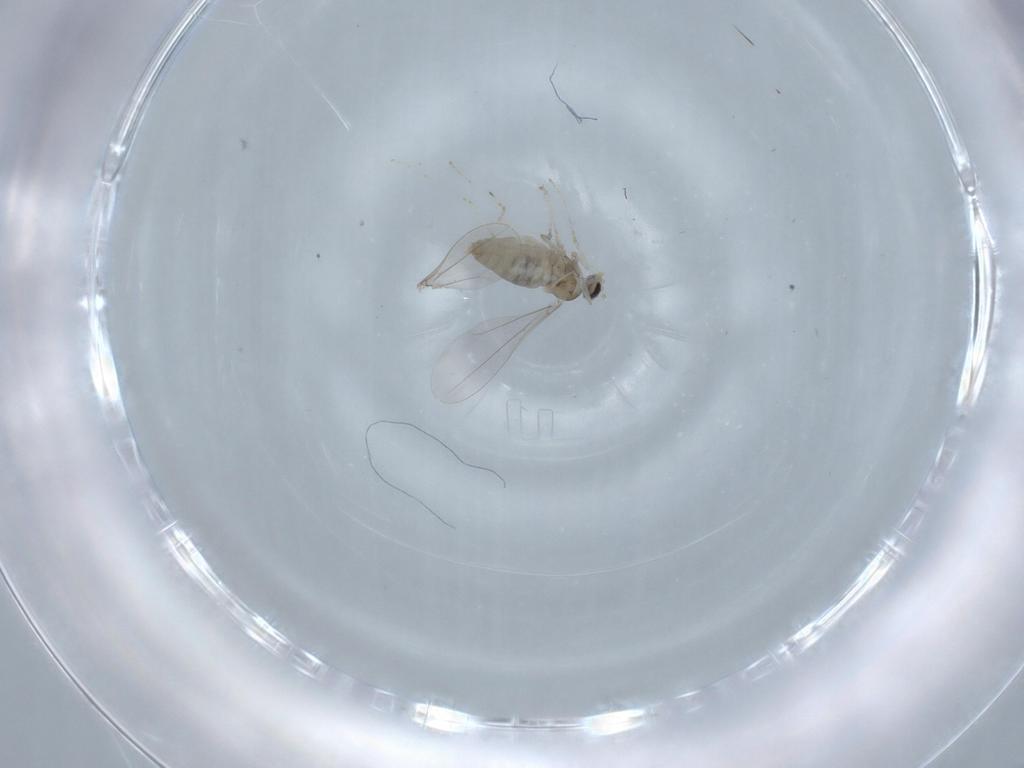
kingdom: Animalia
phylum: Arthropoda
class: Insecta
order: Diptera
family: Cecidomyiidae
